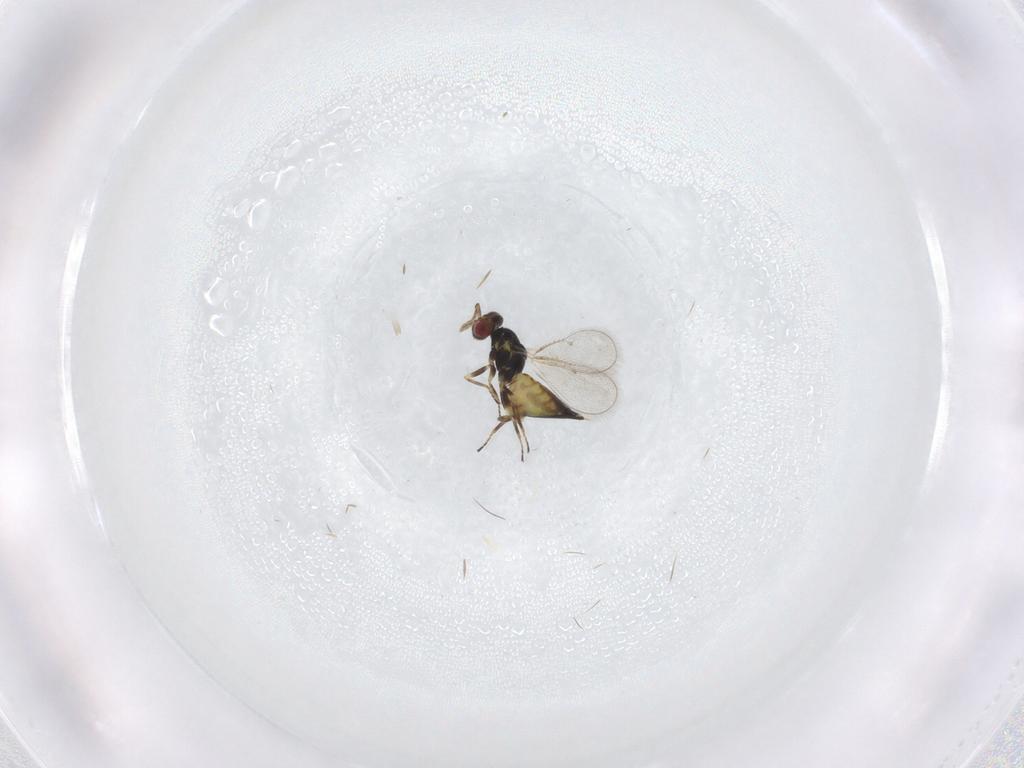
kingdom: Animalia
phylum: Arthropoda
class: Insecta
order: Hymenoptera
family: Eulophidae
